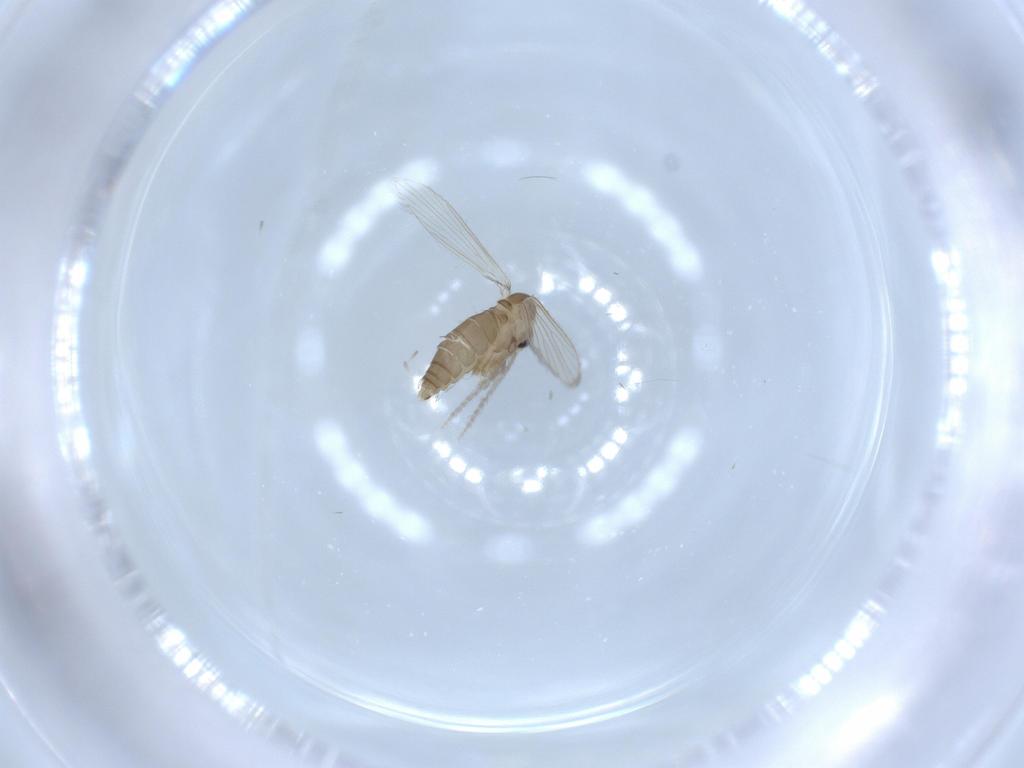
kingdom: Animalia
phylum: Arthropoda
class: Insecta
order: Diptera
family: Psychodidae
